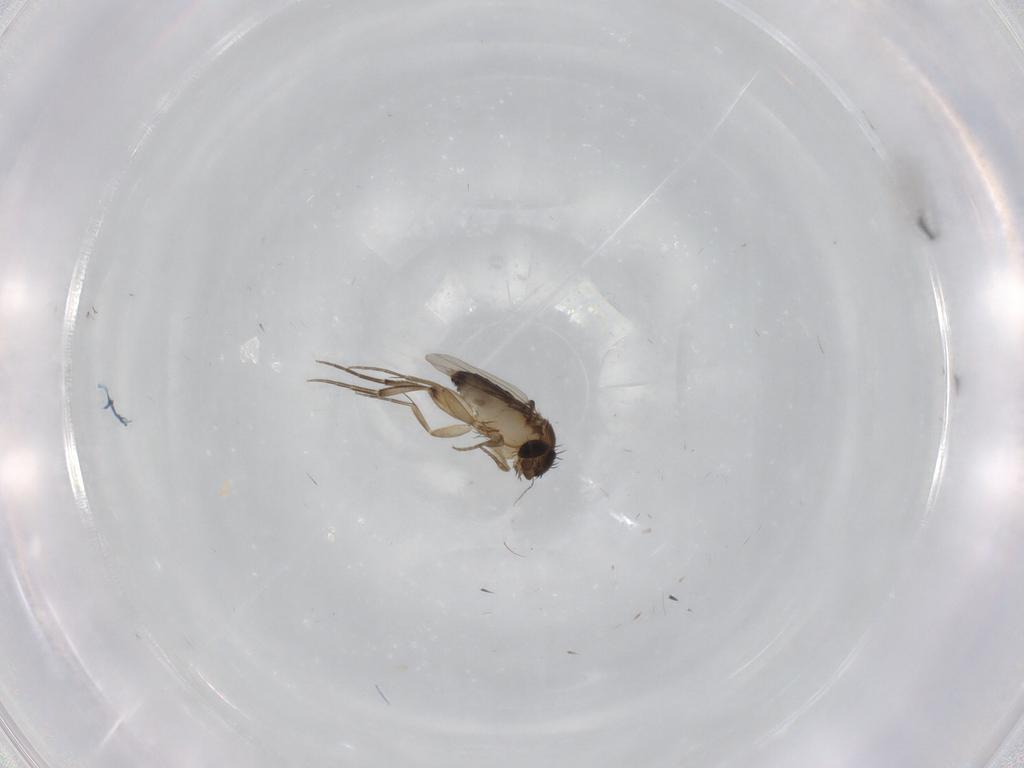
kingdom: Animalia
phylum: Arthropoda
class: Insecta
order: Diptera
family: Phoridae
